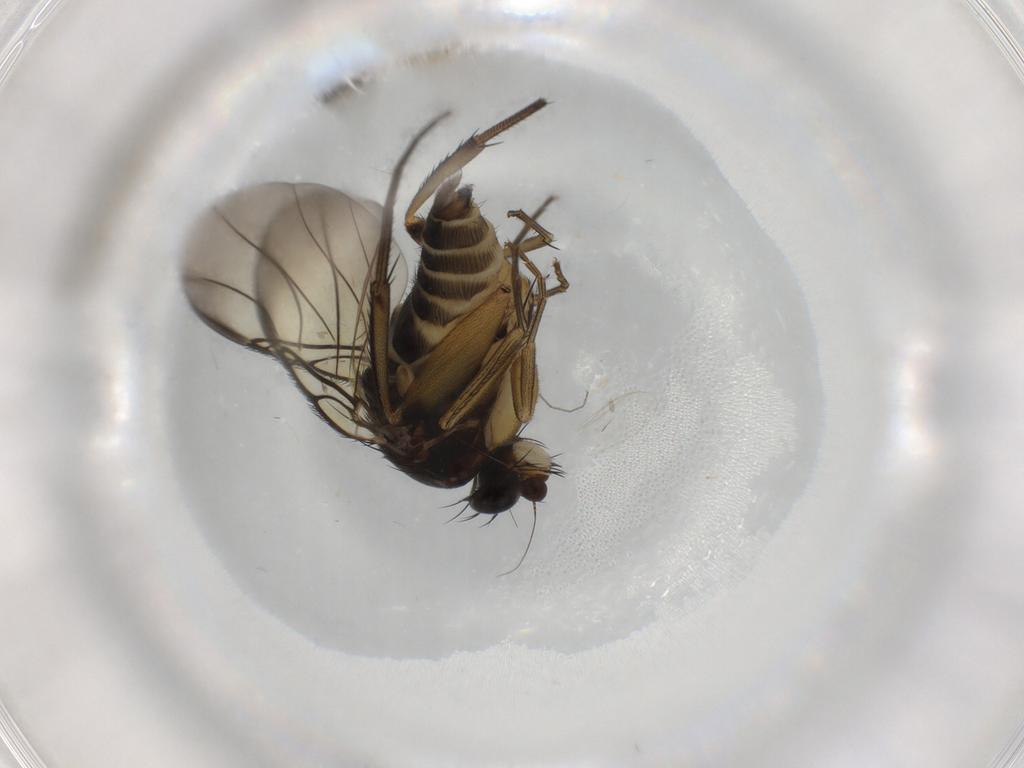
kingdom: Animalia
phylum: Arthropoda
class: Insecta
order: Diptera
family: Phoridae
